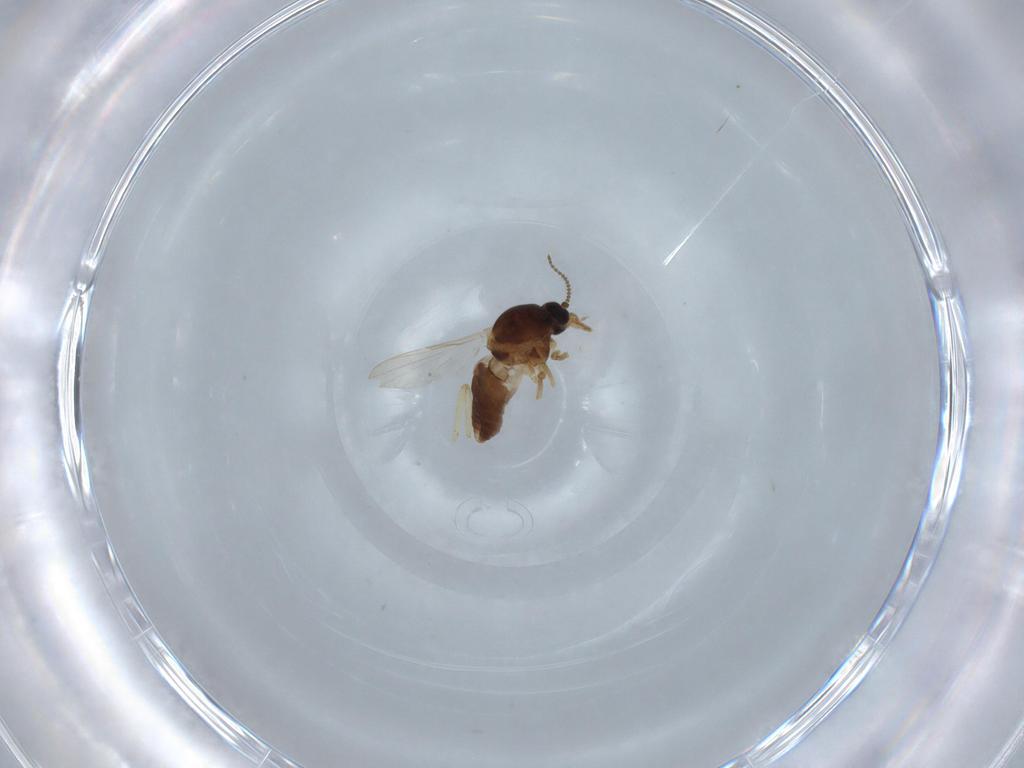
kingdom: Animalia
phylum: Arthropoda
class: Insecta
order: Diptera
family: Ceratopogonidae
